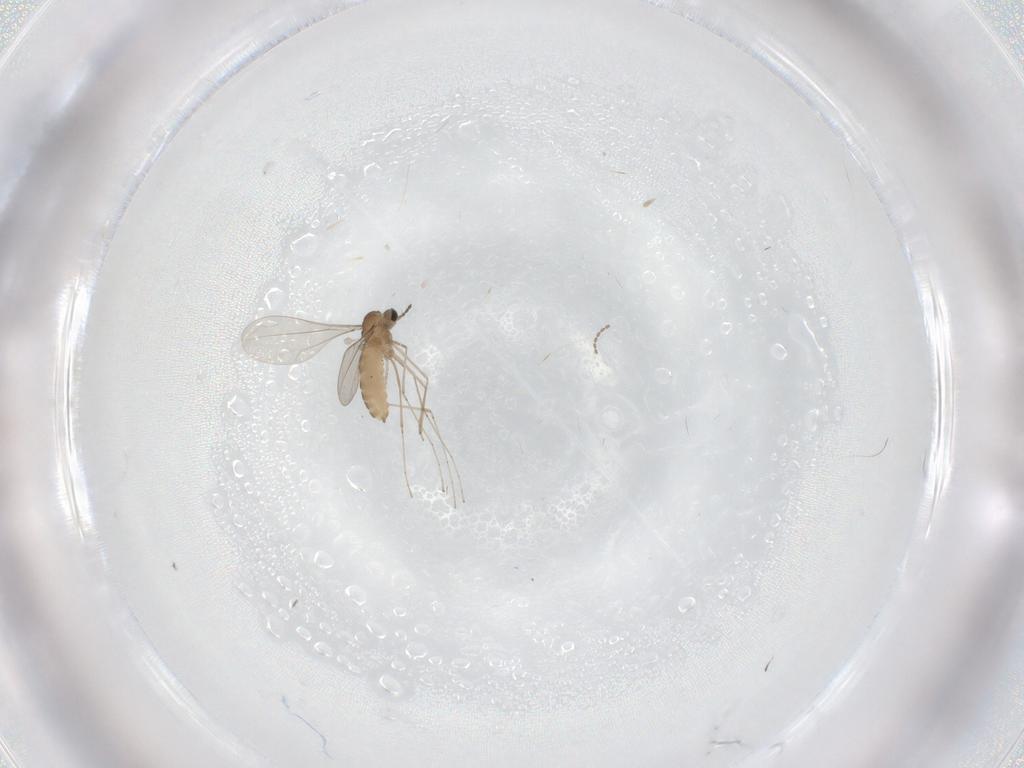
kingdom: Animalia
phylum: Arthropoda
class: Insecta
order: Diptera
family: Cecidomyiidae
